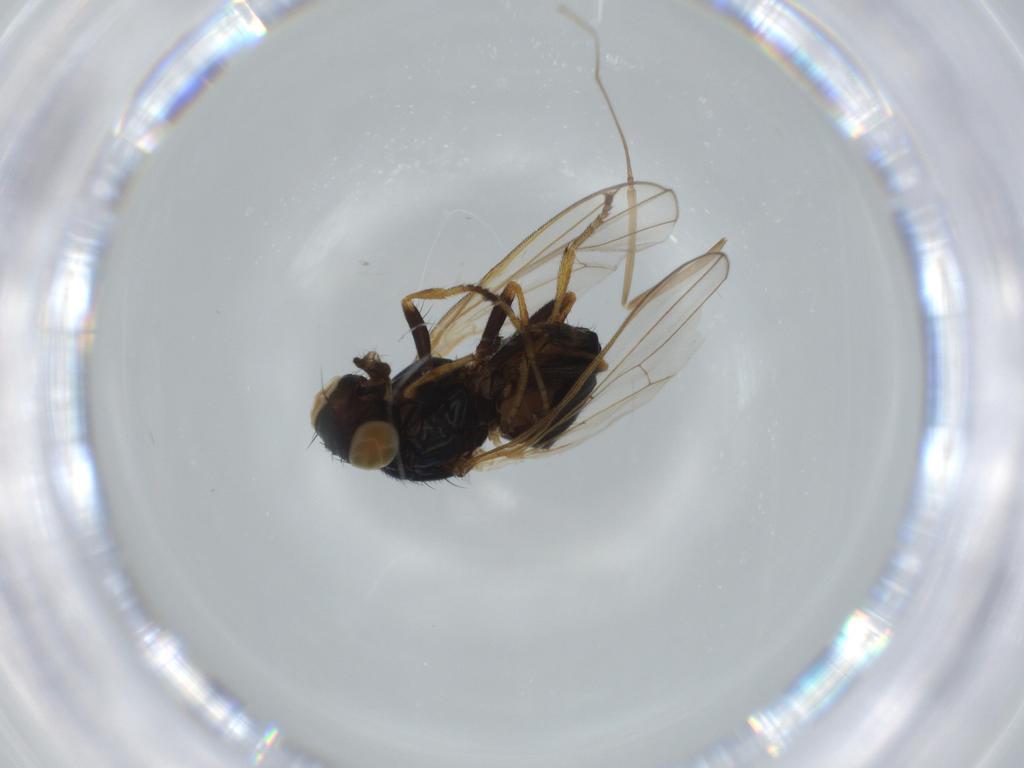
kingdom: Animalia
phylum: Arthropoda
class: Insecta
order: Diptera
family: Piophilidae
